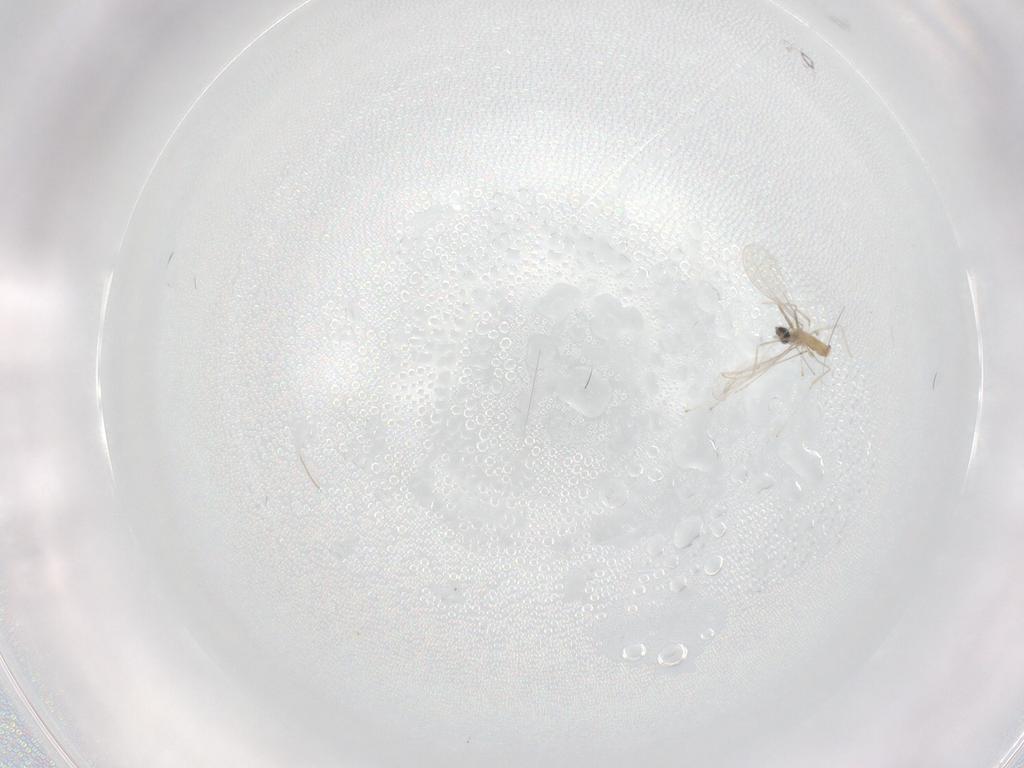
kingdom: Animalia
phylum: Arthropoda
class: Insecta
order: Diptera
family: Cecidomyiidae
